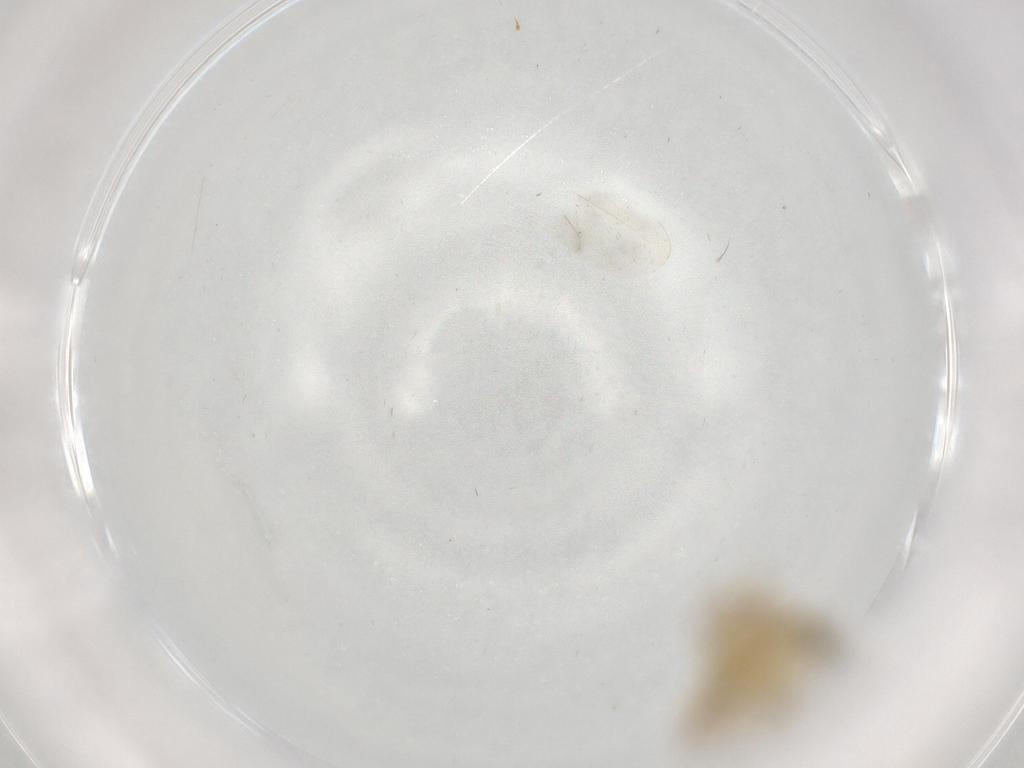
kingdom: Animalia
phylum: Arthropoda
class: Insecta
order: Diptera
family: Chironomidae
